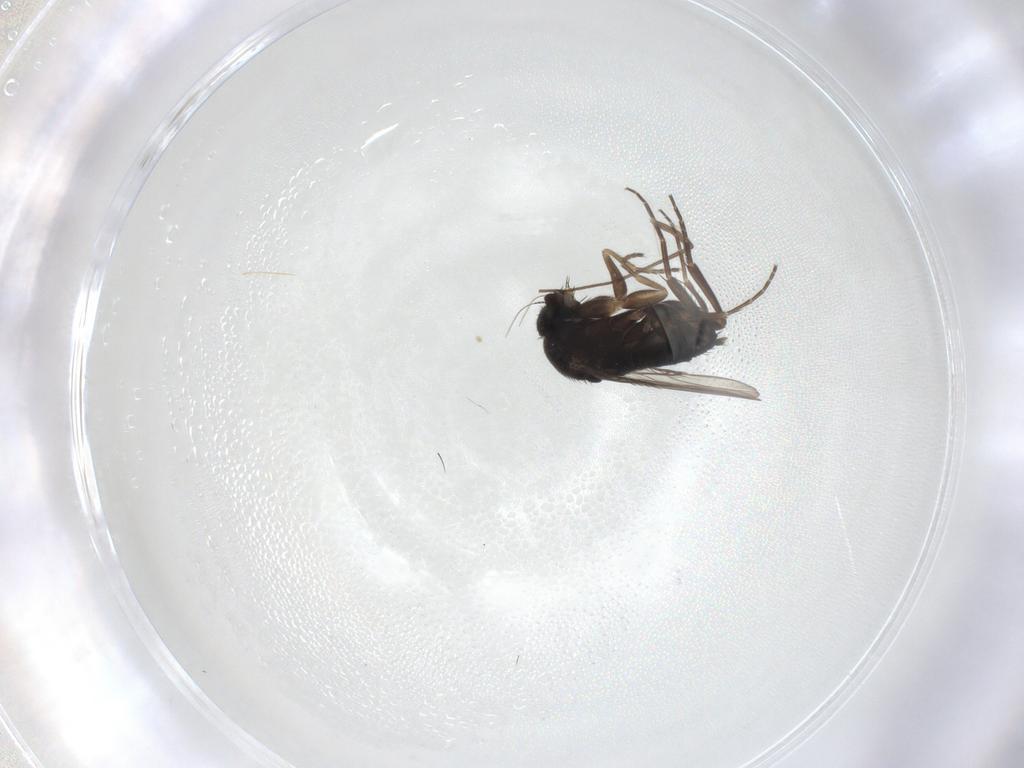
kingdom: Animalia
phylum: Arthropoda
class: Insecta
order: Diptera
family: Phoridae
